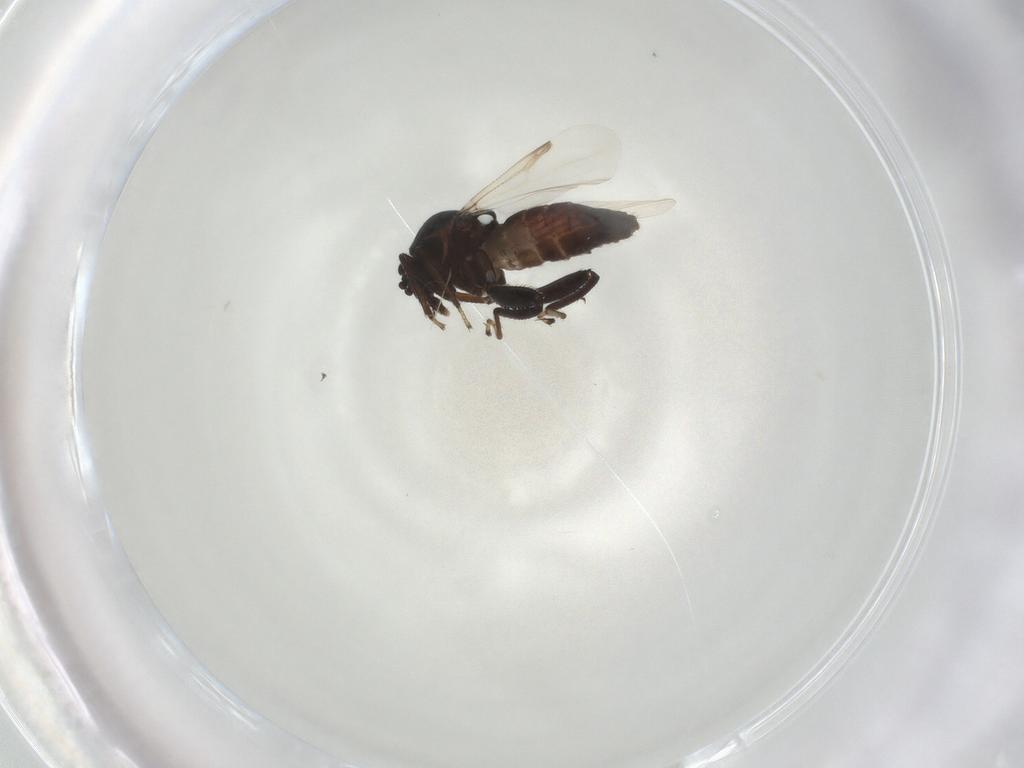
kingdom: Animalia
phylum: Arthropoda
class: Insecta
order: Diptera
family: Ceratopogonidae
